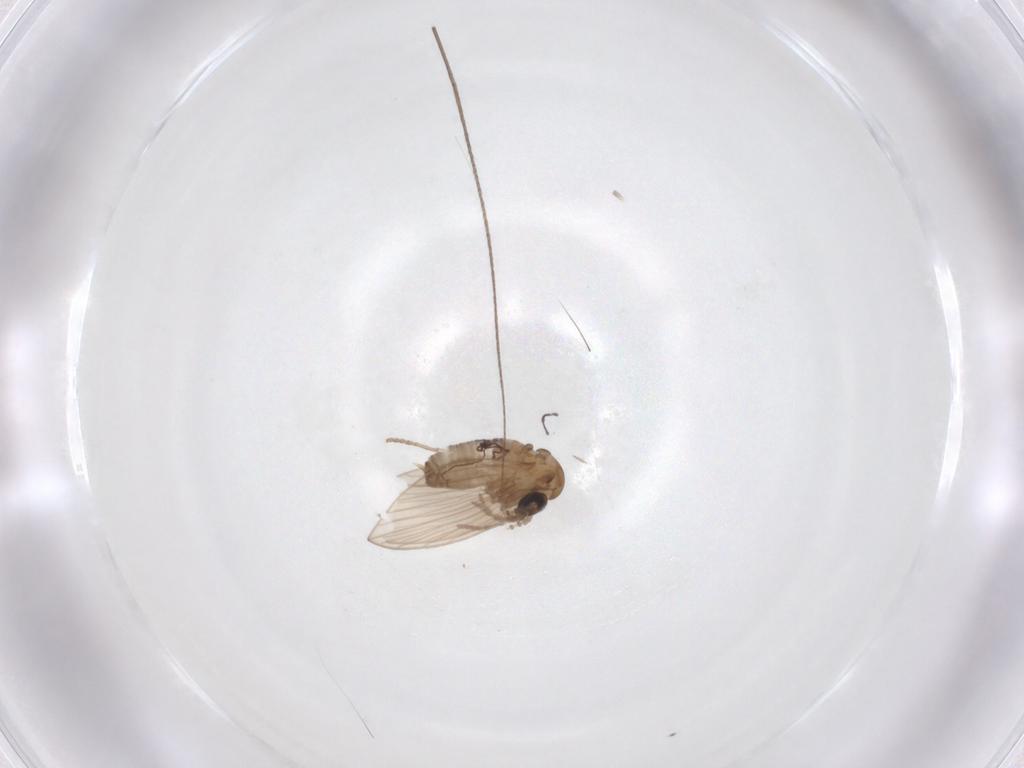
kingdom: Animalia
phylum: Arthropoda
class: Insecta
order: Diptera
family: Psychodidae
